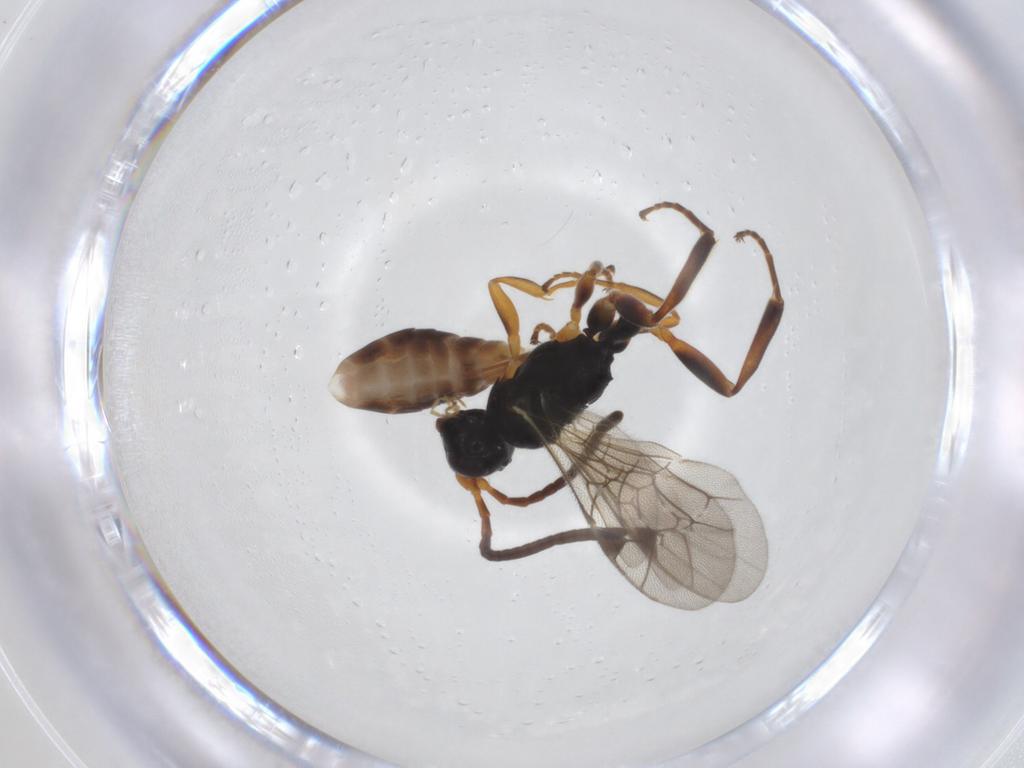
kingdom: Animalia
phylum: Arthropoda
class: Insecta
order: Hymenoptera
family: Ichneumonidae
